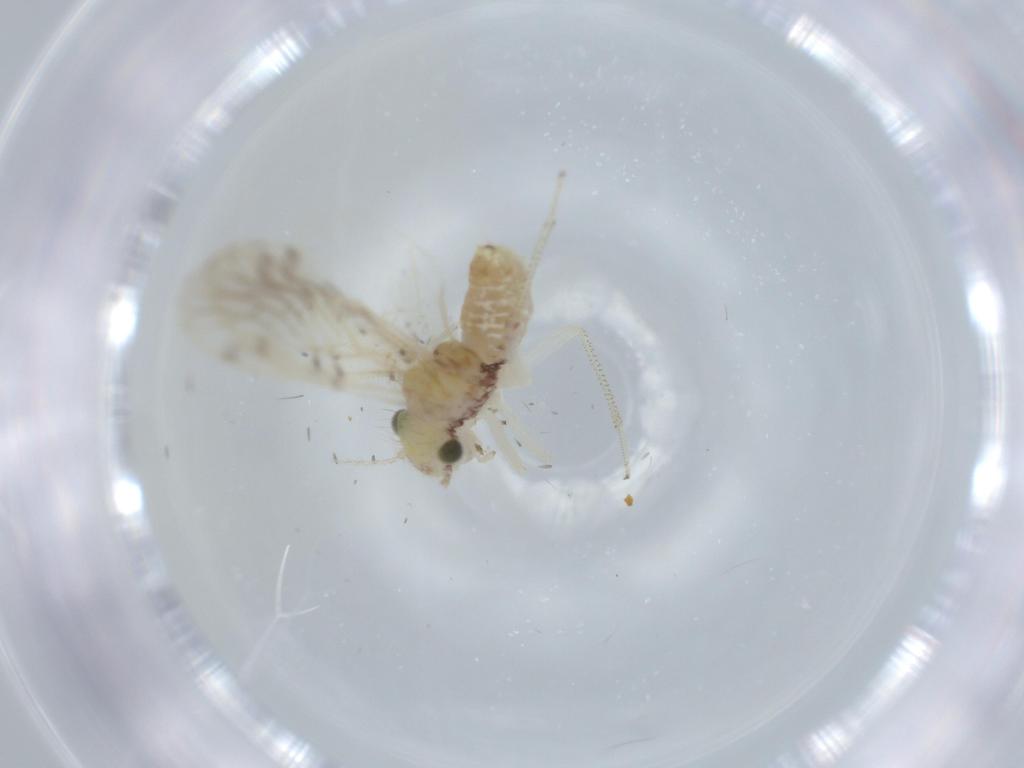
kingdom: Animalia
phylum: Arthropoda
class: Insecta
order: Psocodea
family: Pseudocaeciliidae
